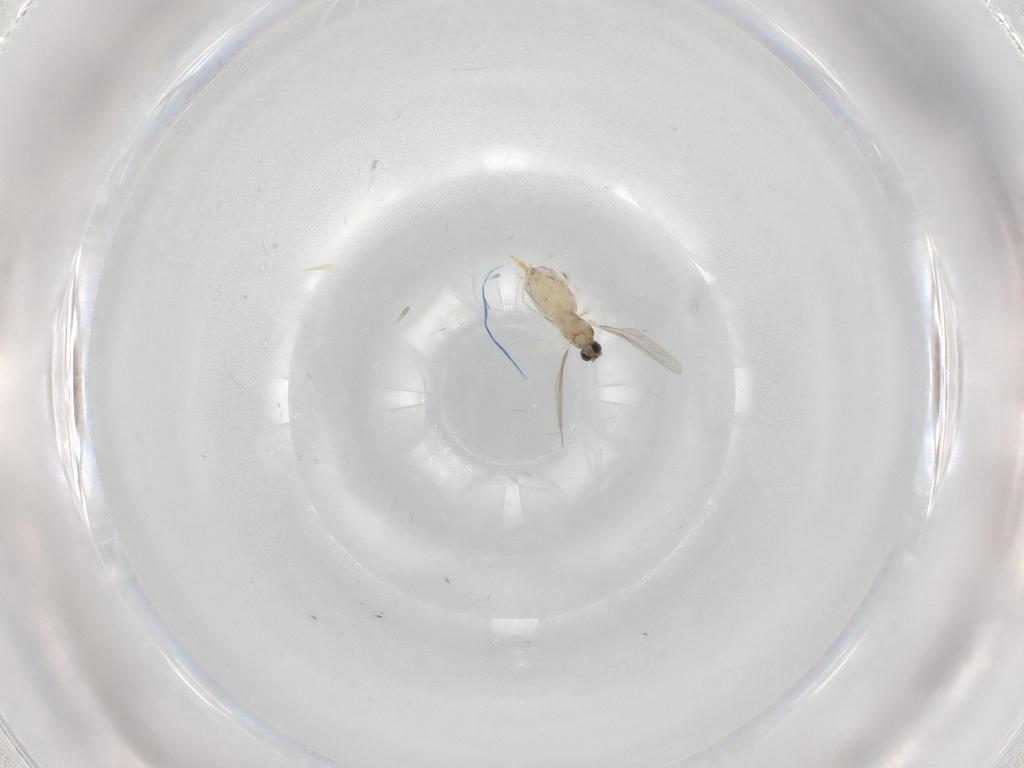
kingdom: Animalia
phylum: Arthropoda
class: Insecta
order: Diptera
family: Cecidomyiidae
